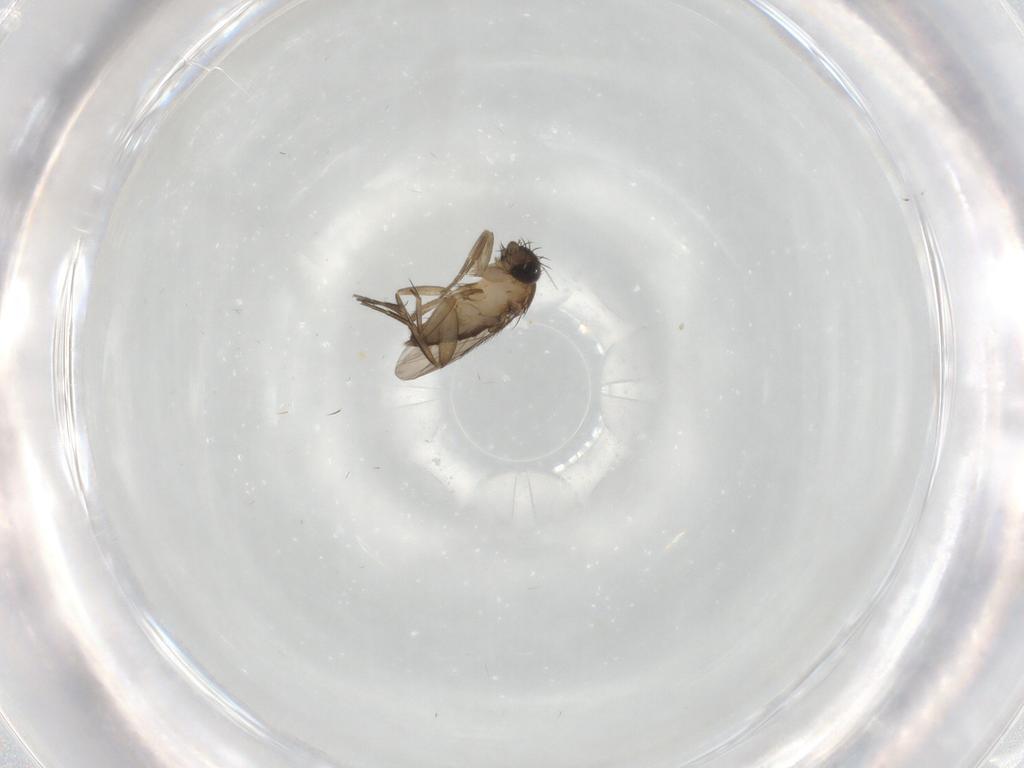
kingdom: Animalia
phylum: Arthropoda
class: Insecta
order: Diptera
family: Phoridae
